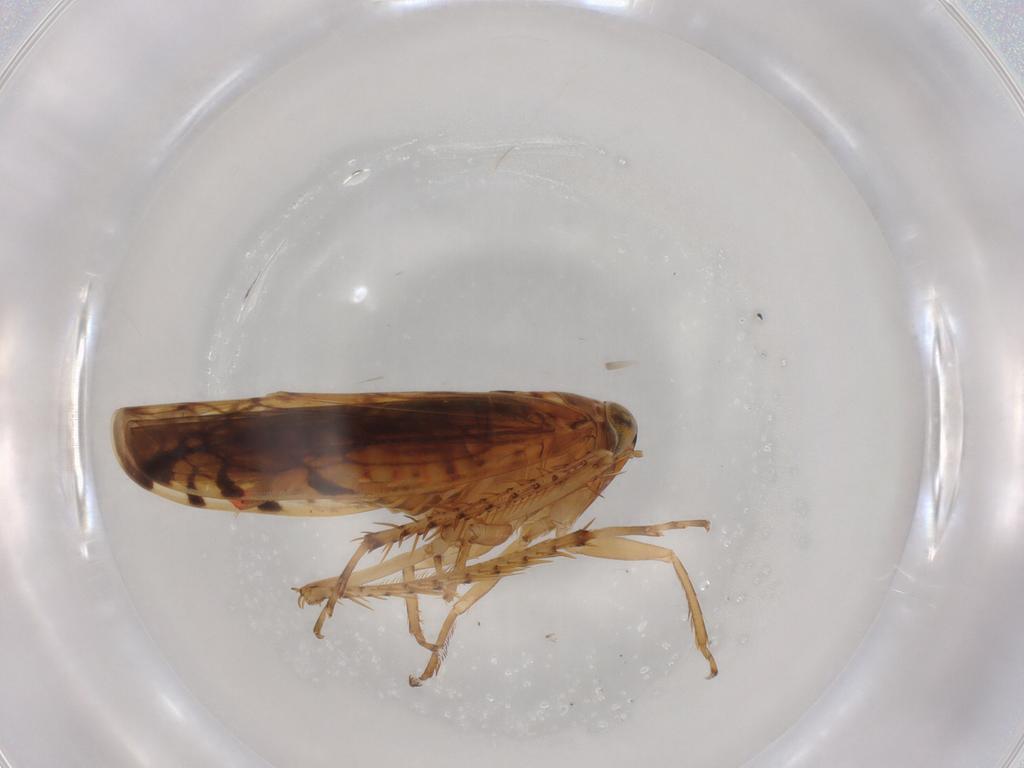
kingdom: Animalia
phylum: Arthropoda
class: Insecta
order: Hemiptera
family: Cicadellidae
